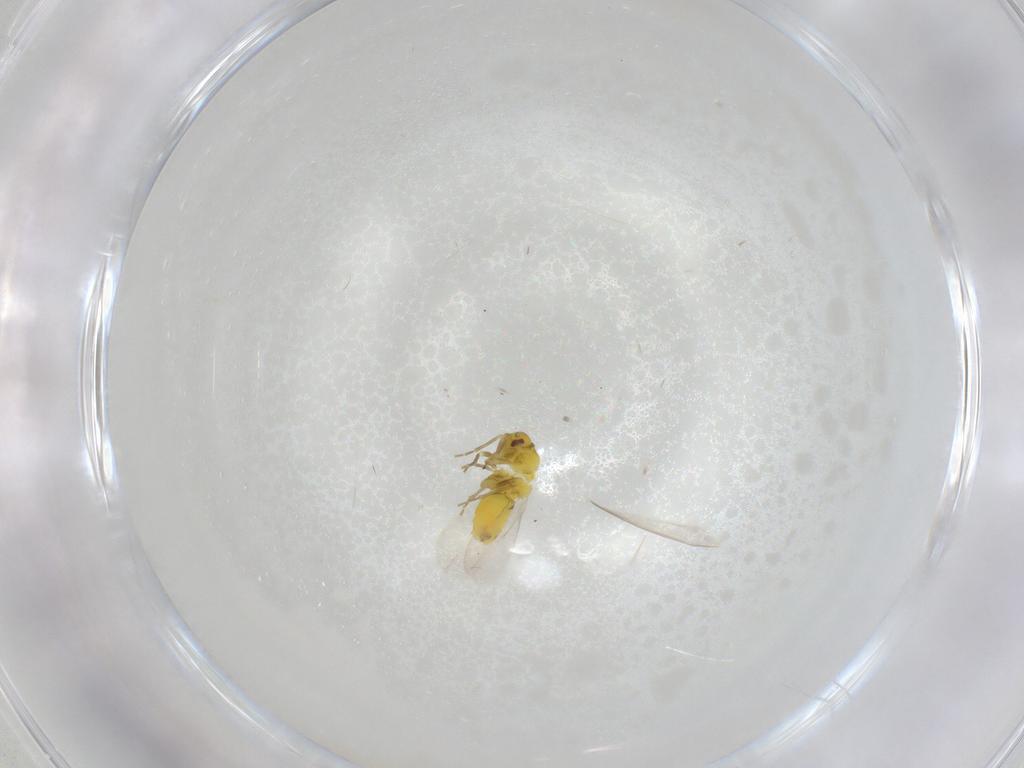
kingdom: Animalia
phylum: Arthropoda
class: Insecta
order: Hemiptera
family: Aleyrodidae
